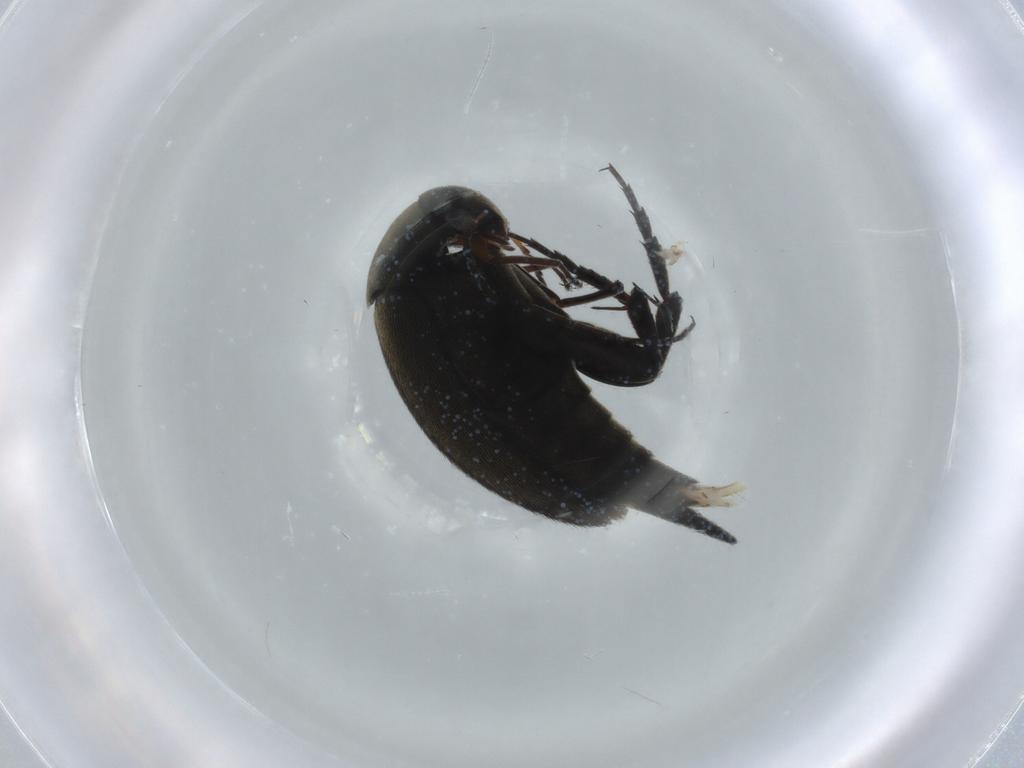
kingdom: Animalia
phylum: Arthropoda
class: Insecta
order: Coleoptera
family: Mordellidae
